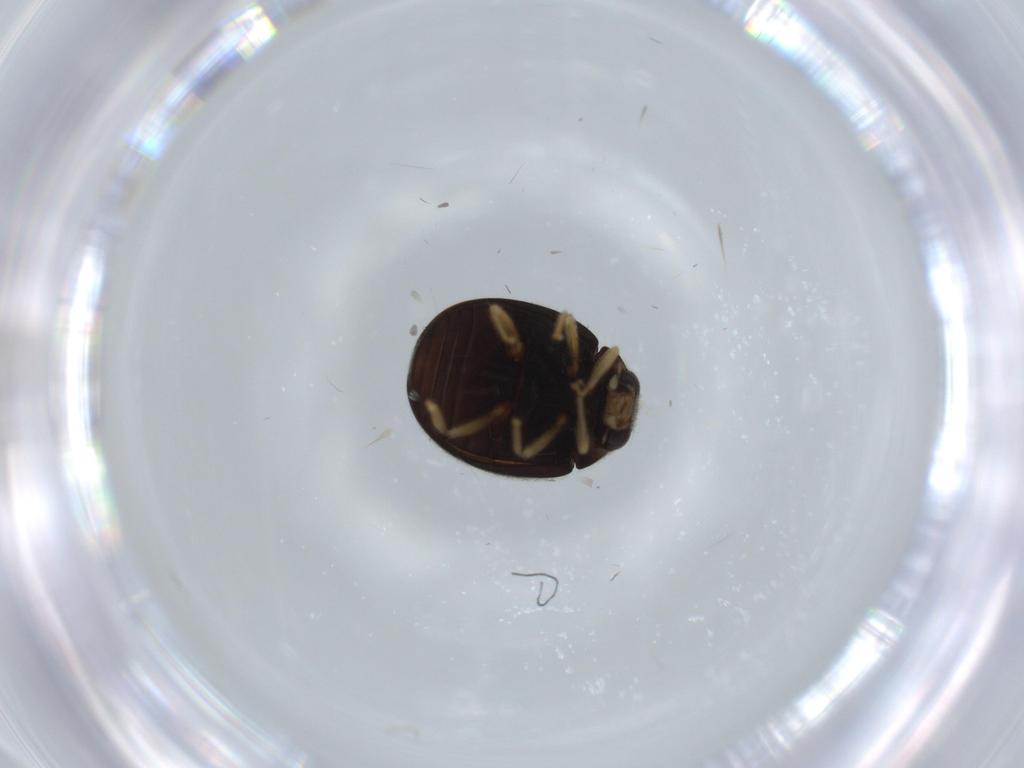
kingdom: Animalia
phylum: Arthropoda
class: Insecta
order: Coleoptera
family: Coccinellidae
